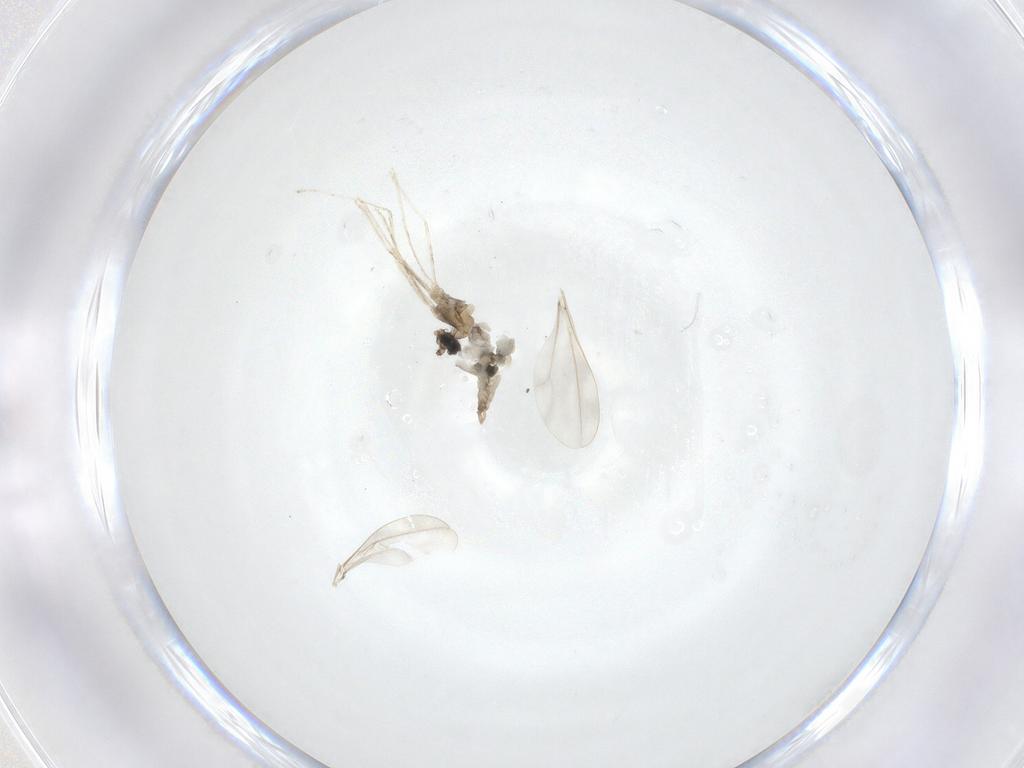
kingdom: Animalia
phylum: Arthropoda
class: Insecta
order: Diptera
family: Cecidomyiidae
